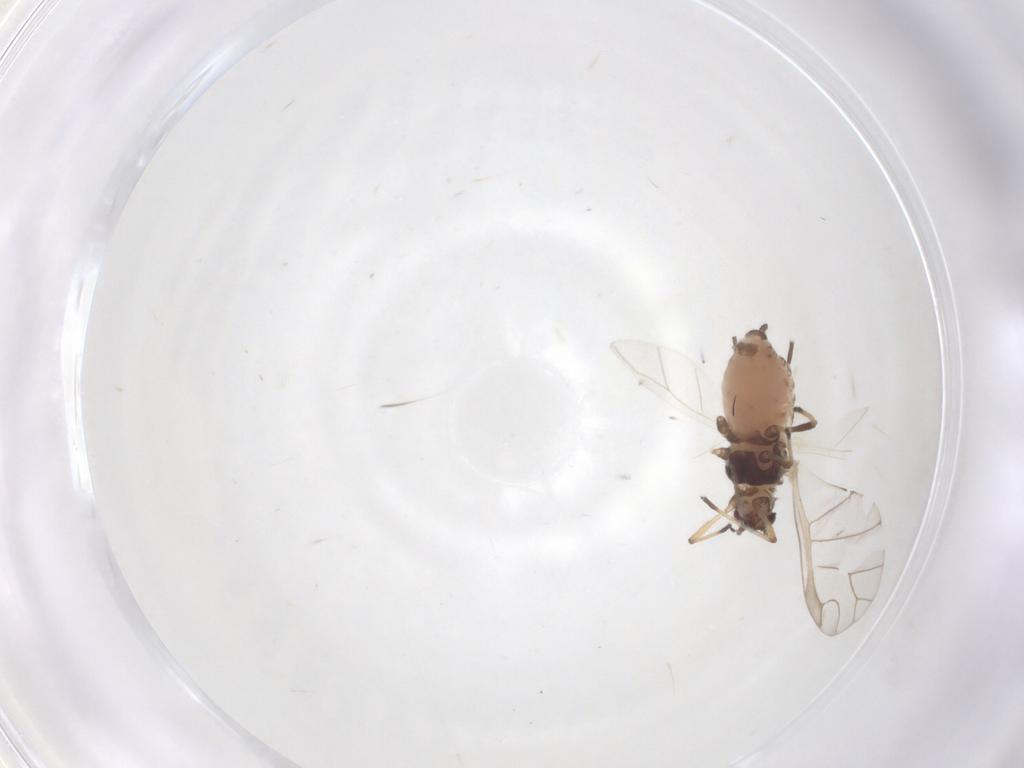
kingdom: Animalia
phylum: Arthropoda
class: Insecta
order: Hemiptera
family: Aphididae
